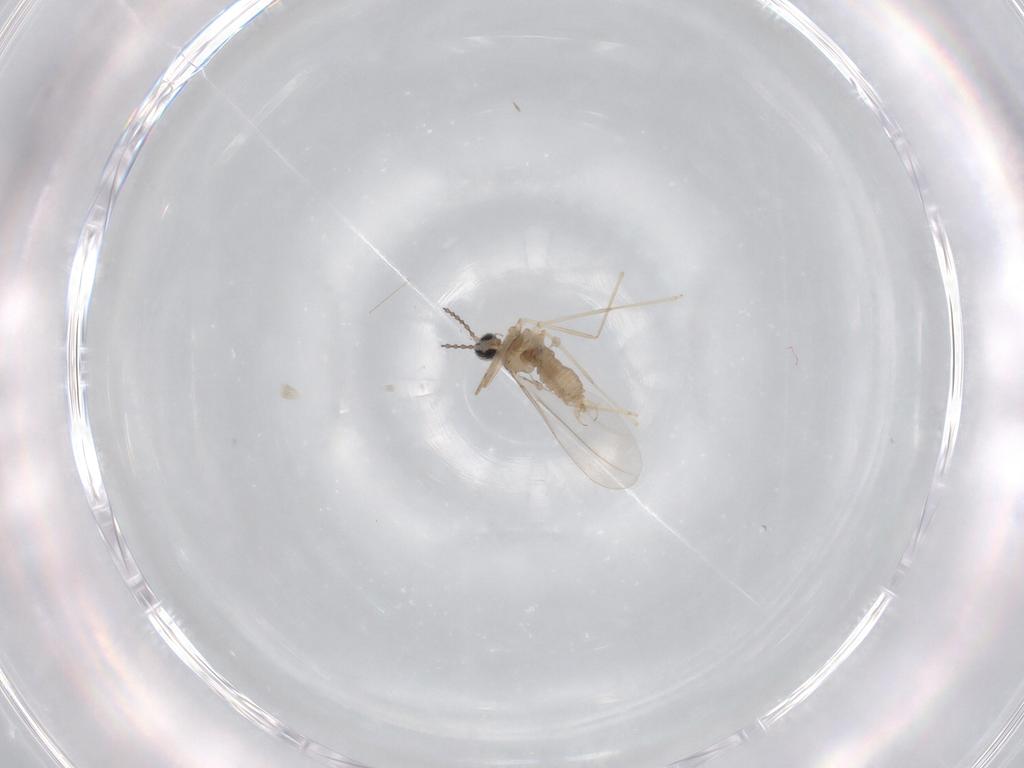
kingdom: Animalia
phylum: Arthropoda
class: Insecta
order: Diptera
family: Cecidomyiidae
